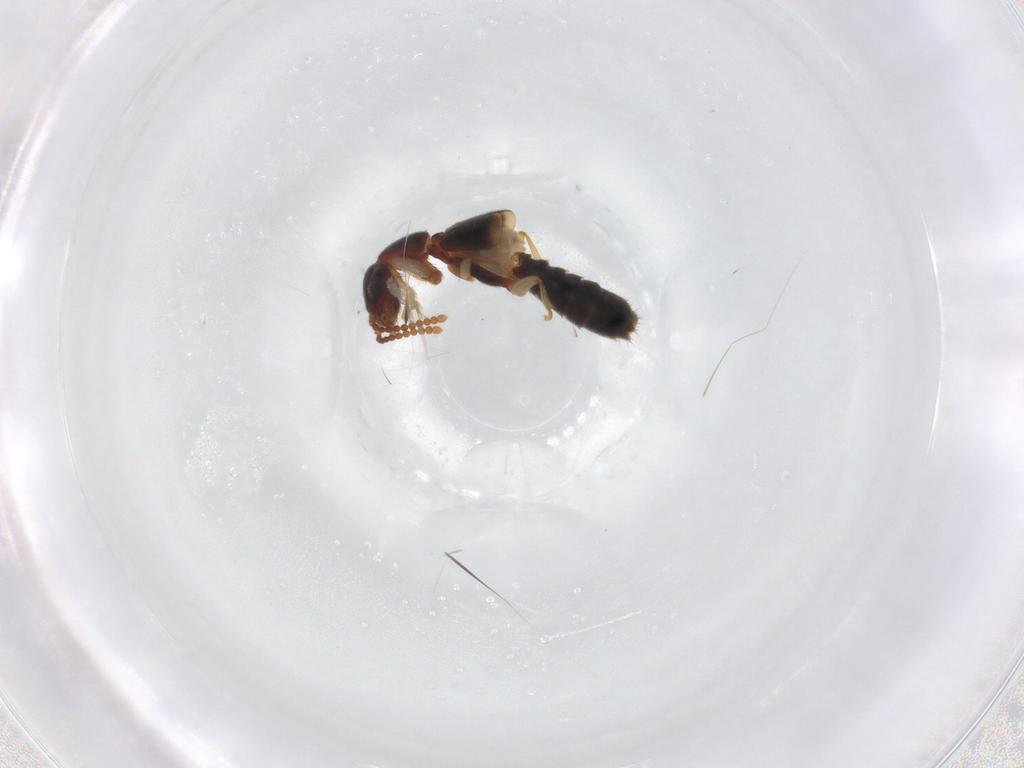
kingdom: Animalia
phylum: Arthropoda
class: Insecta
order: Coleoptera
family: Staphylinidae
